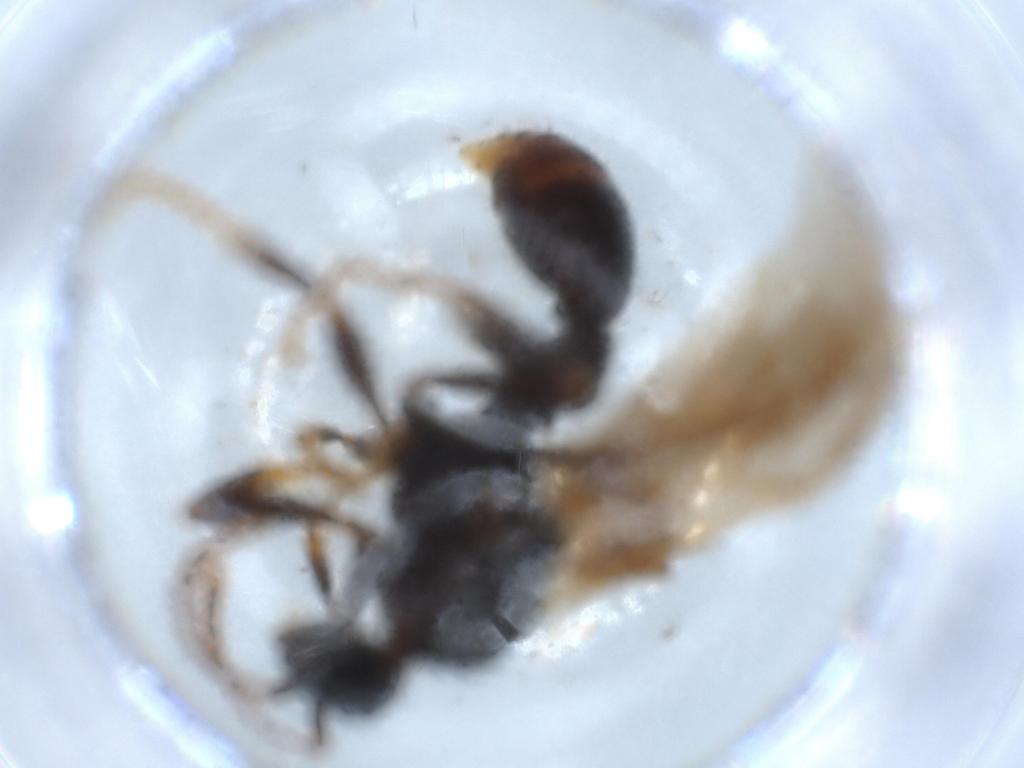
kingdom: Animalia
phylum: Arthropoda
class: Insecta
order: Hymenoptera
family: Formicidae
